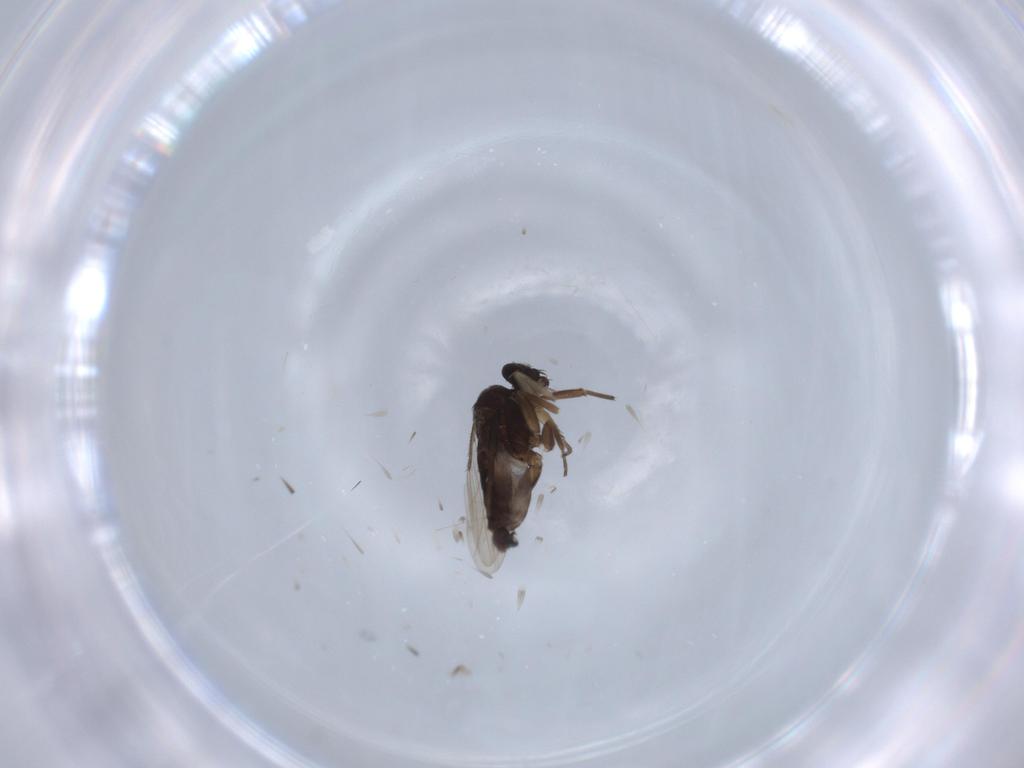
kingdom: Animalia
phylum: Arthropoda
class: Insecta
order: Diptera
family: Phoridae
